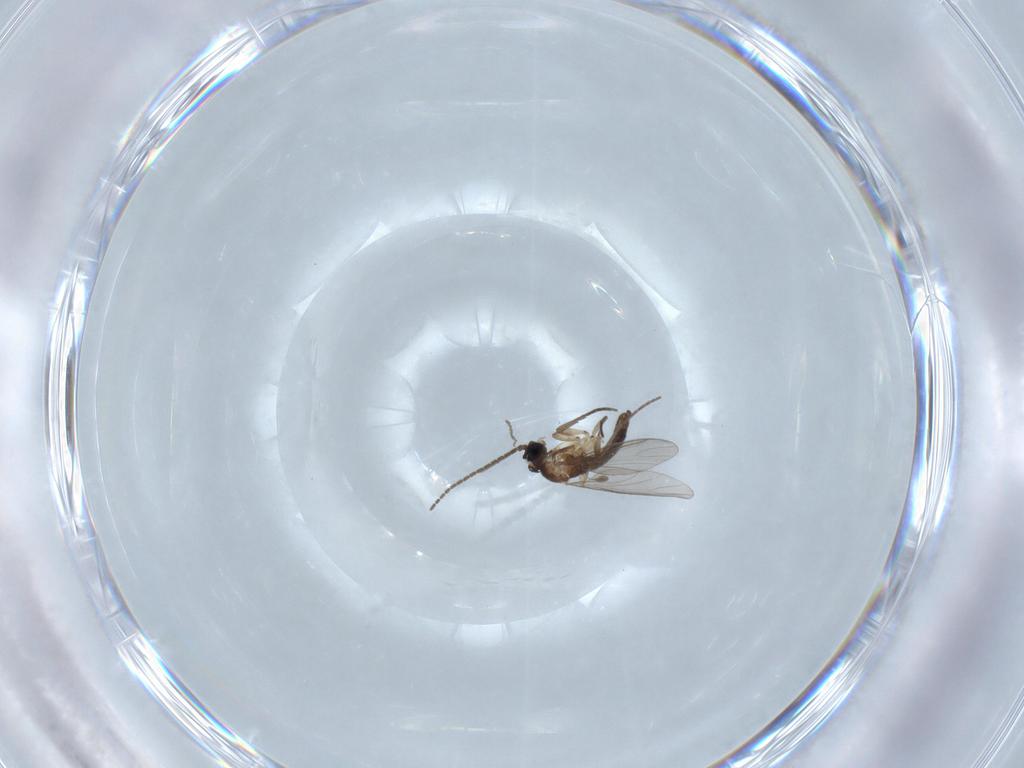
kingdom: Animalia
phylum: Arthropoda
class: Insecta
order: Diptera
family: Sciaridae
